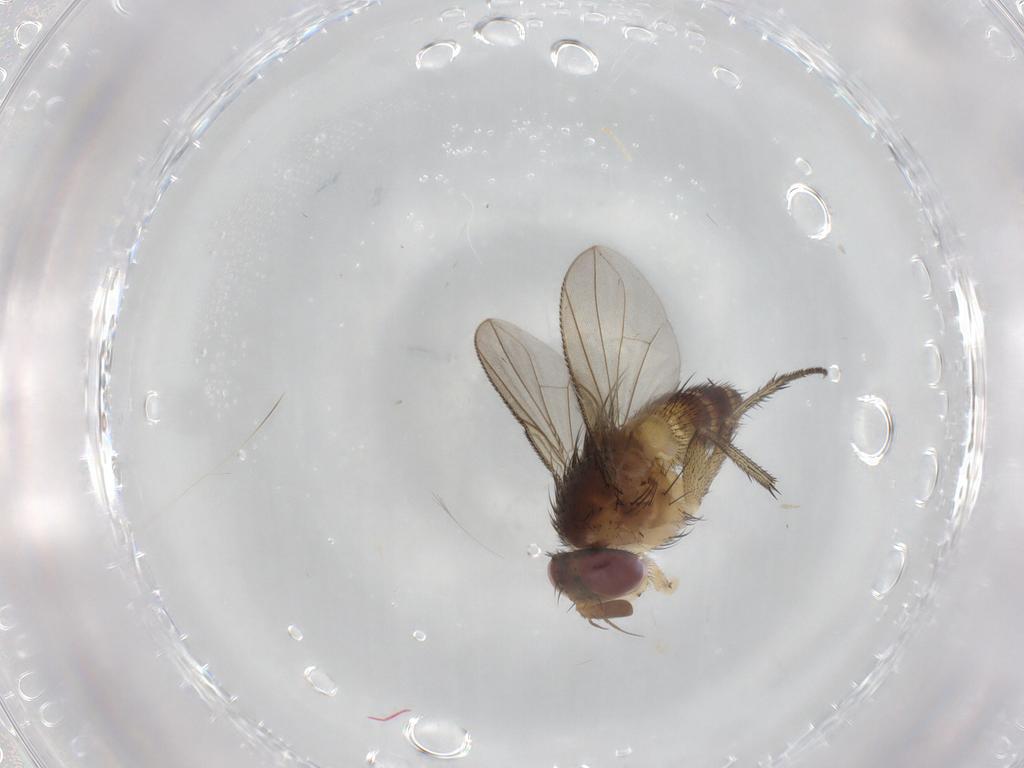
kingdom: Animalia
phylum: Arthropoda
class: Insecta
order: Diptera
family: Tachinidae
